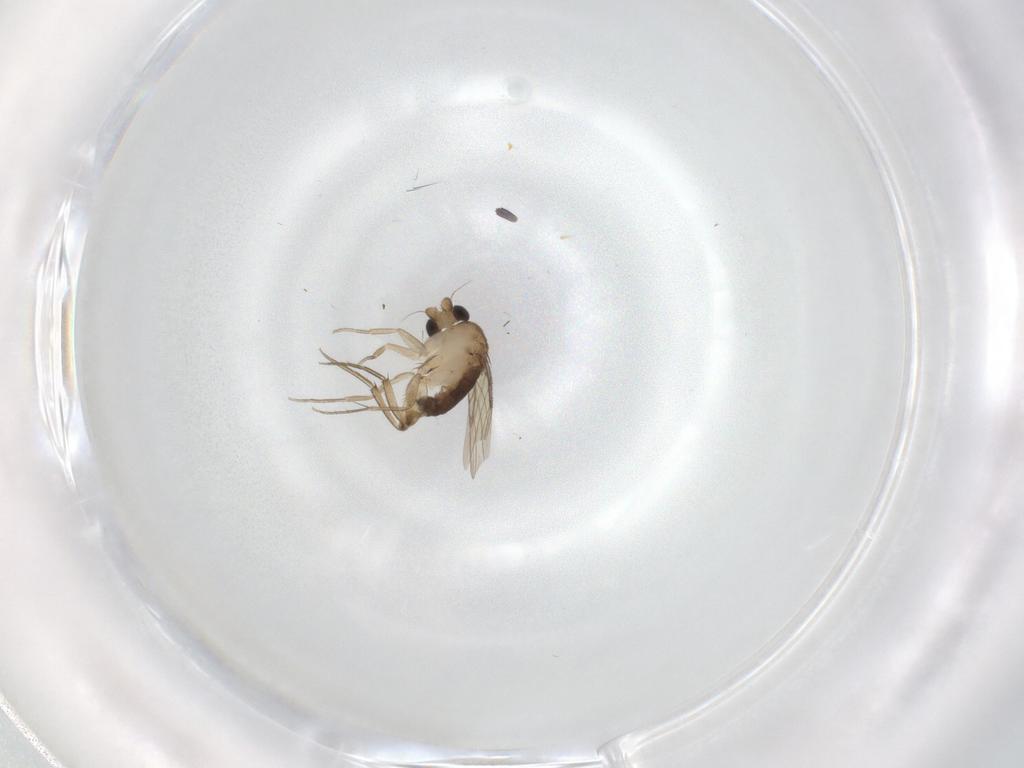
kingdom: Animalia
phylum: Arthropoda
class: Insecta
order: Diptera
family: Phoridae
